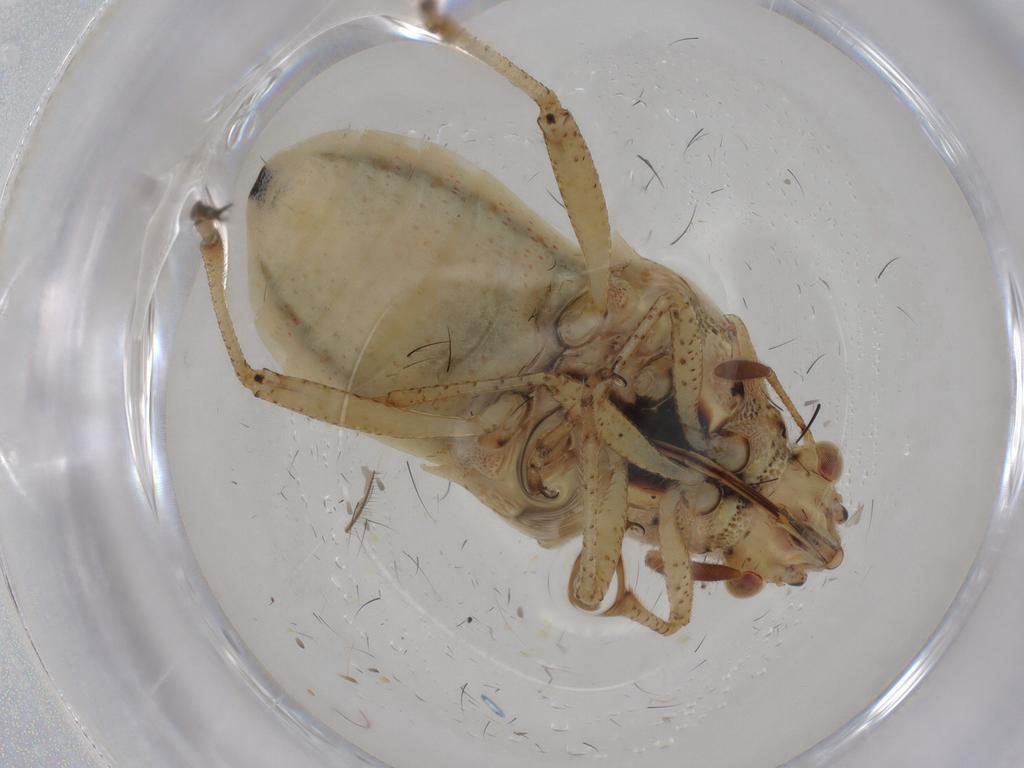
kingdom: Animalia
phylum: Arthropoda
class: Insecta
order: Hemiptera
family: Rhopalidae
